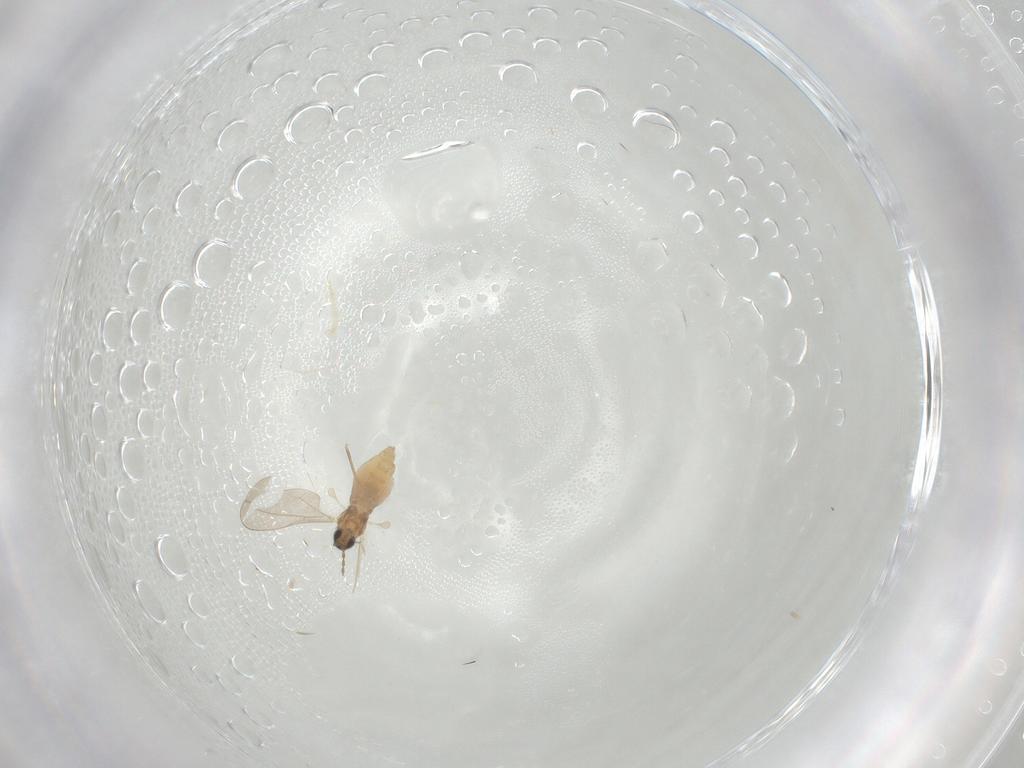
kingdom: Animalia
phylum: Arthropoda
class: Insecta
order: Diptera
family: Cecidomyiidae
